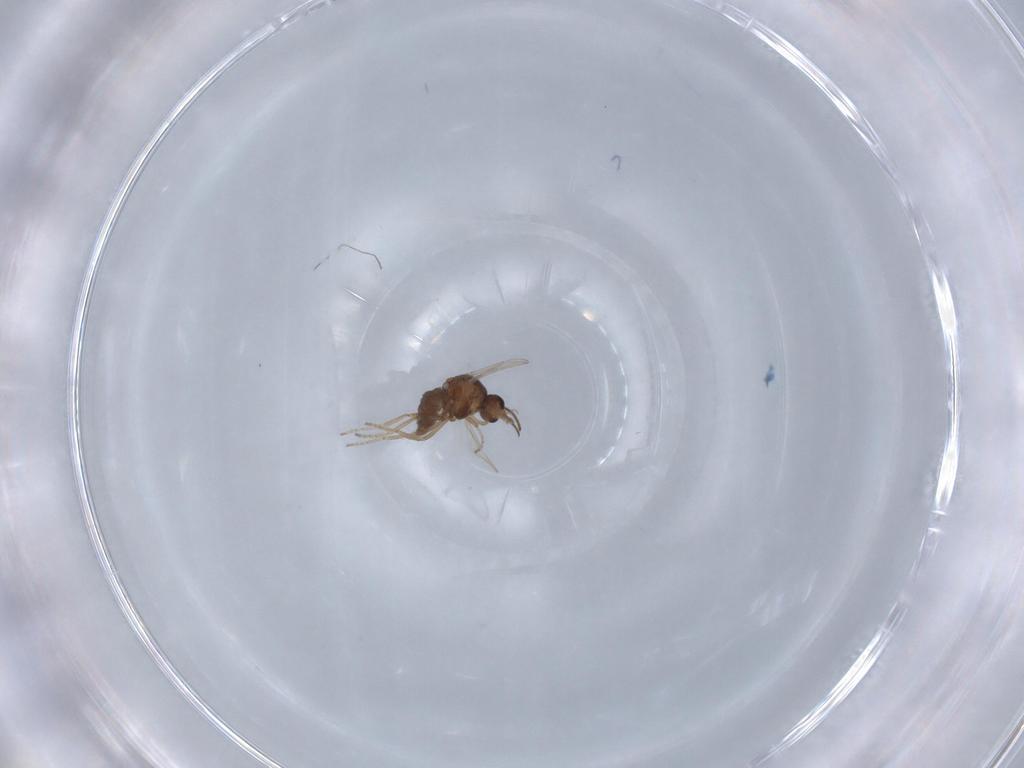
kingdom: Animalia
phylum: Arthropoda
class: Insecta
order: Diptera
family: Ceratopogonidae
